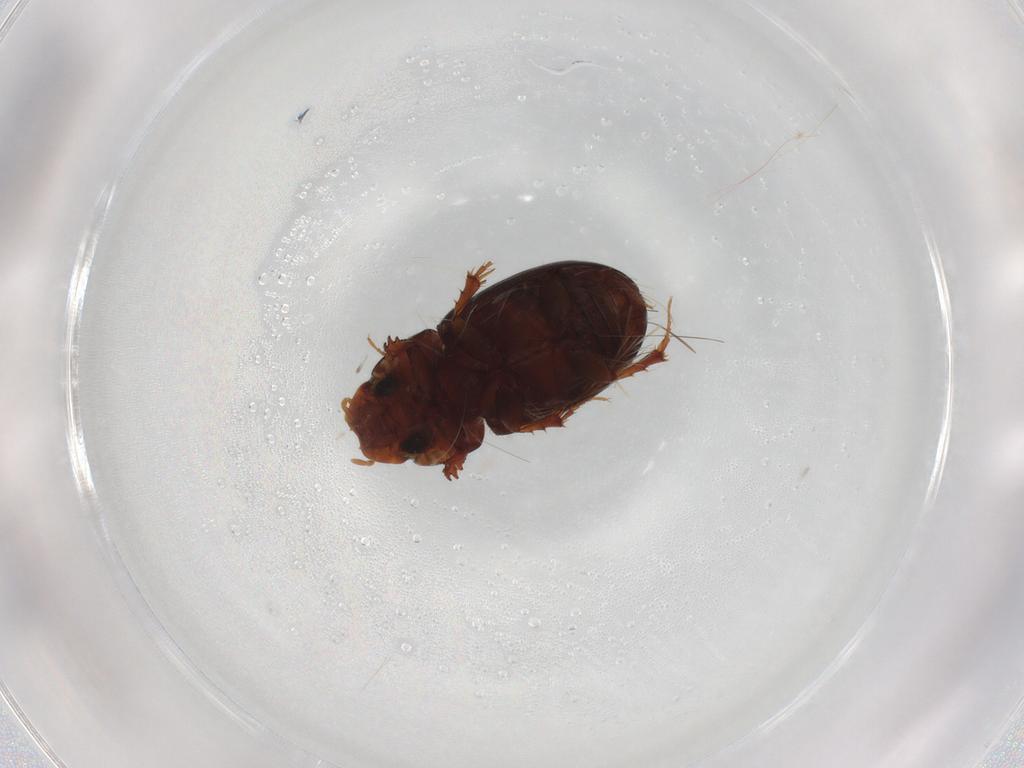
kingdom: Animalia
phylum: Arthropoda
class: Insecta
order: Coleoptera
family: Scarabaeidae
